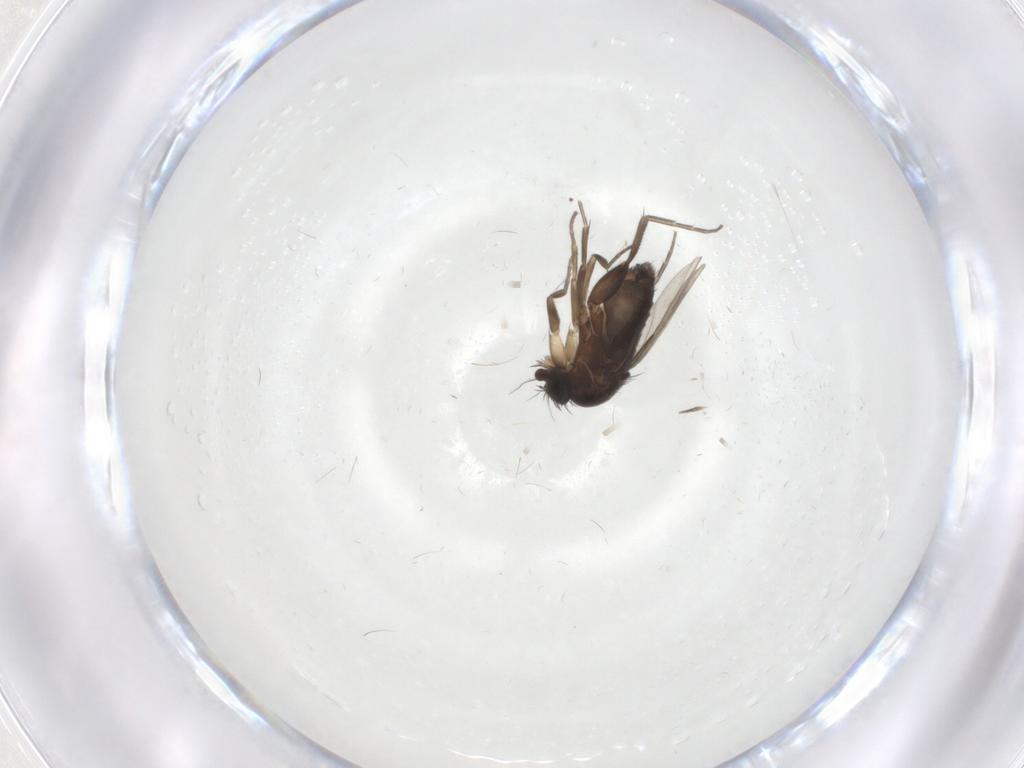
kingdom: Animalia
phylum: Arthropoda
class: Insecta
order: Diptera
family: Phoridae
